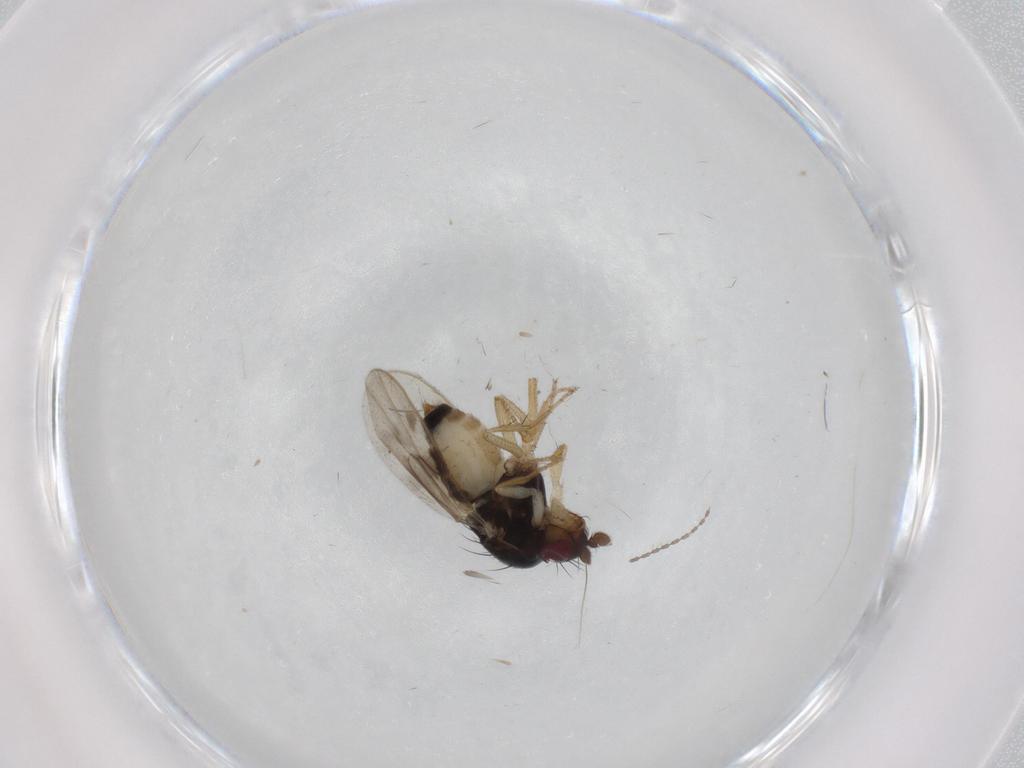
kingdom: Animalia
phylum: Arthropoda
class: Insecta
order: Diptera
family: Sphaeroceridae
